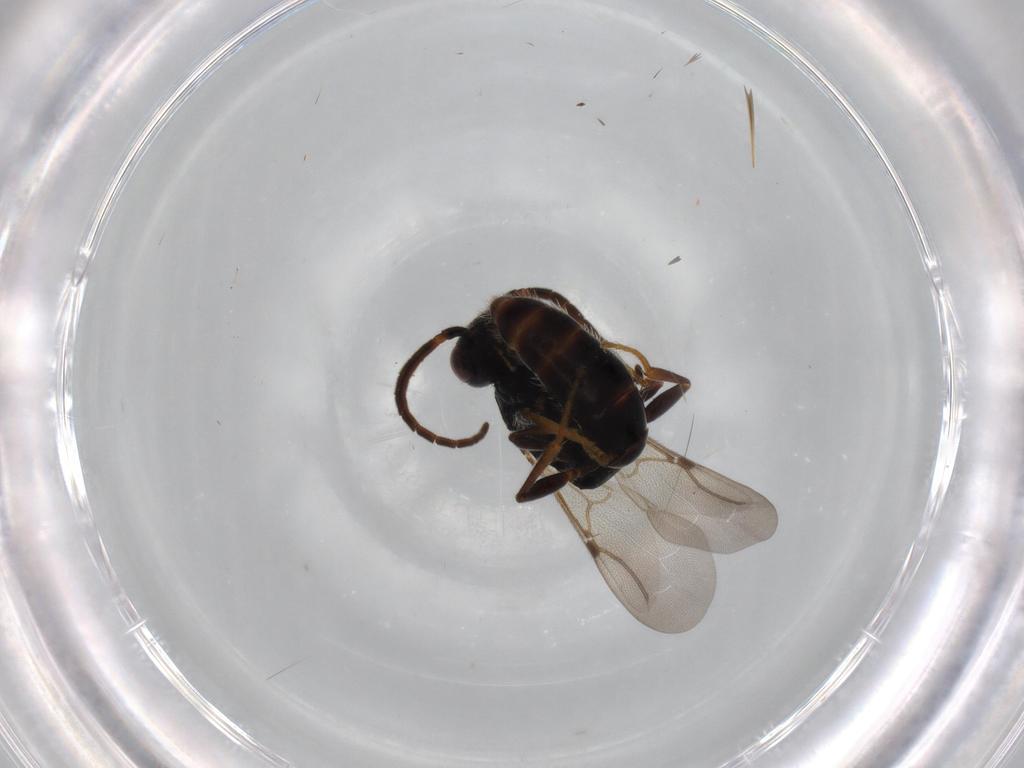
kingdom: Animalia
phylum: Arthropoda
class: Insecta
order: Hymenoptera
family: Bethylidae
